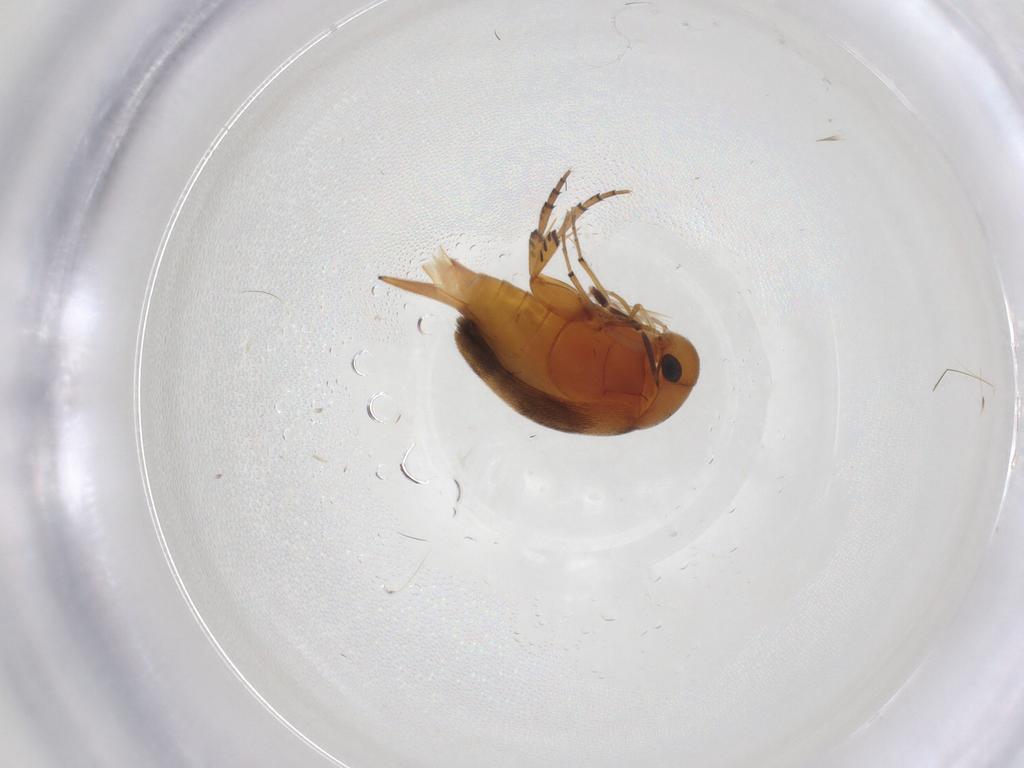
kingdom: Animalia
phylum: Arthropoda
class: Insecta
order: Coleoptera
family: Mordellidae
